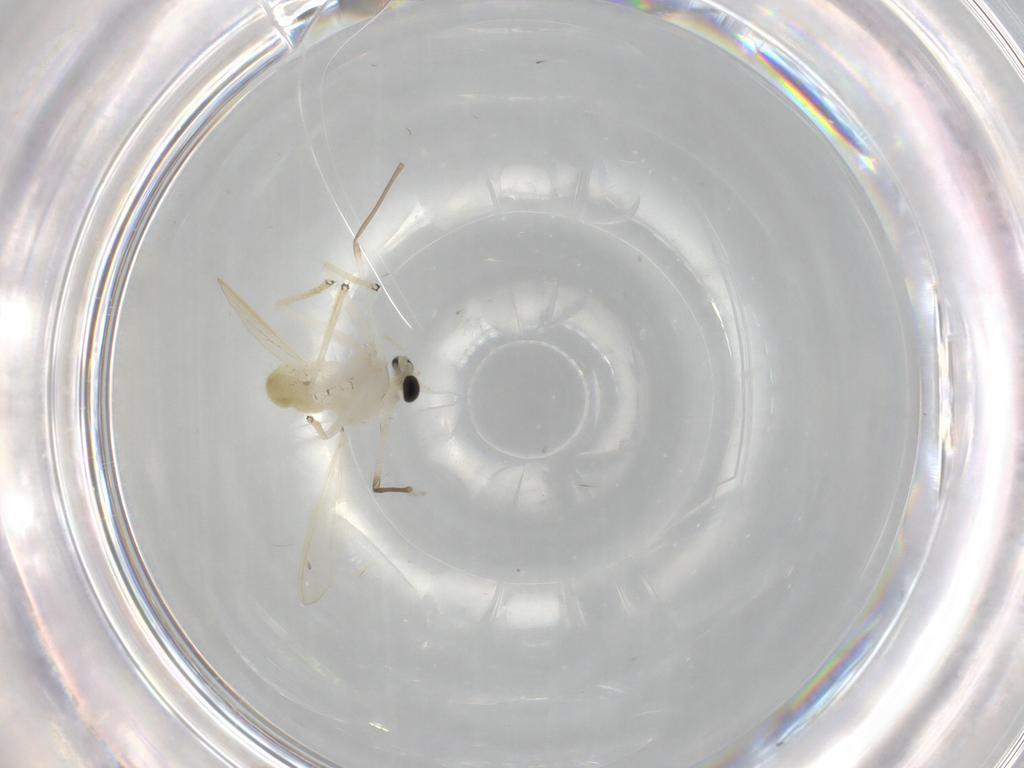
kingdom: Animalia
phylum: Arthropoda
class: Insecta
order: Diptera
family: Chironomidae
